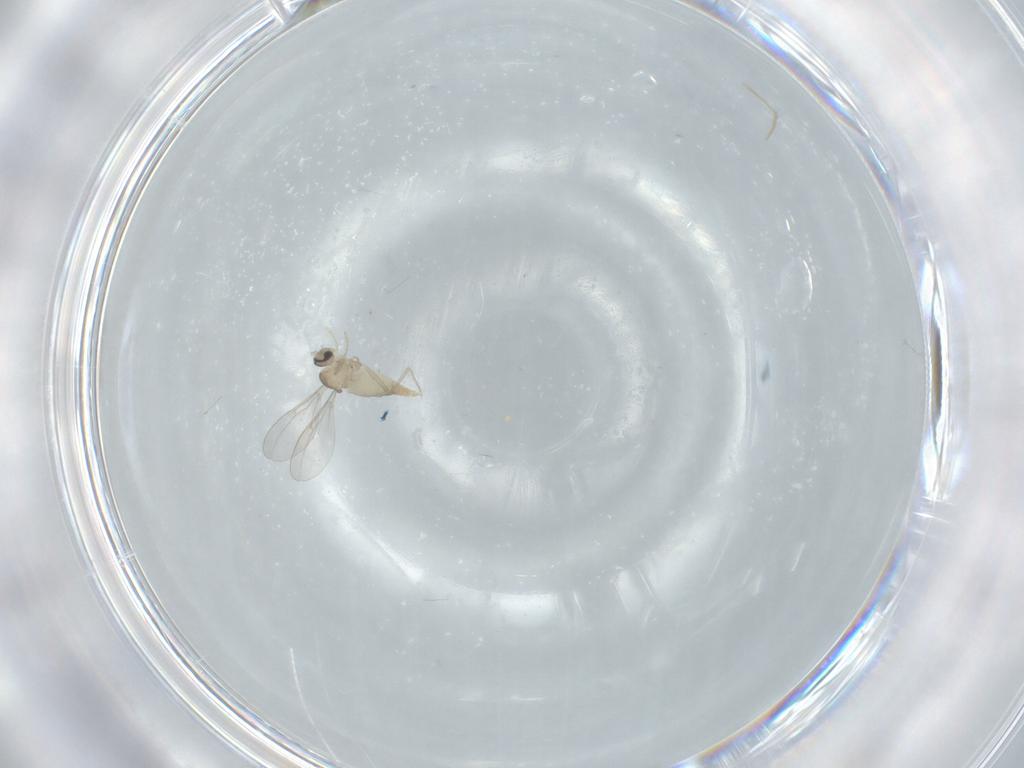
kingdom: Animalia
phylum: Arthropoda
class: Insecta
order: Diptera
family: Cecidomyiidae
